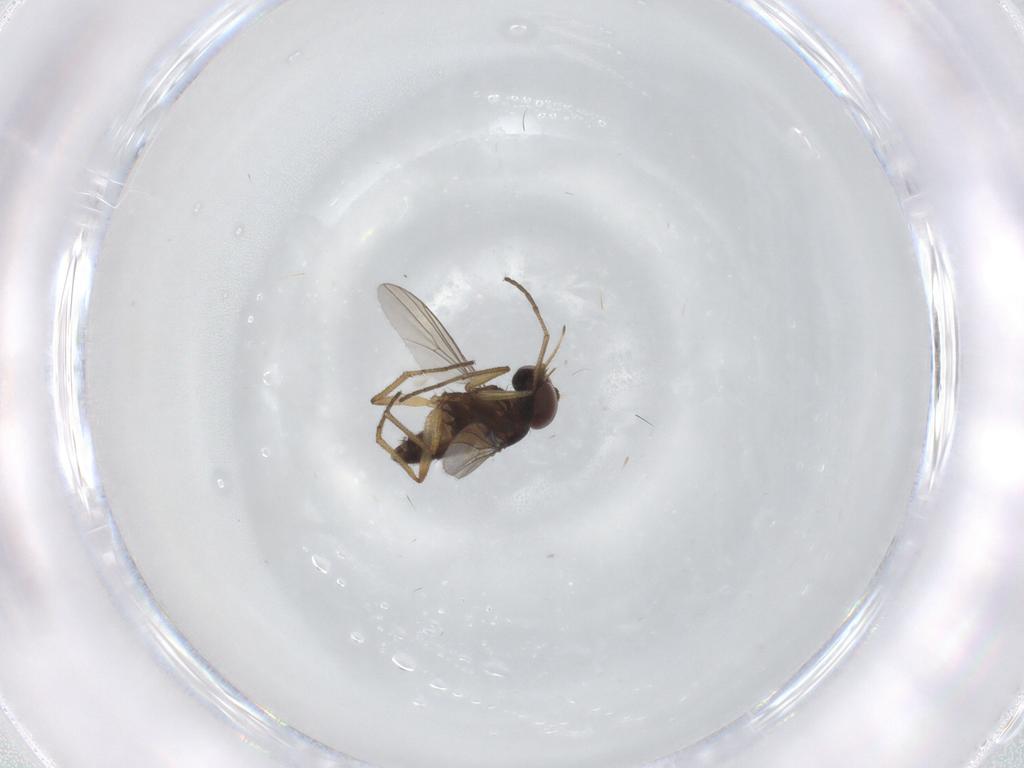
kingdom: Animalia
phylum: Arthropoda
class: Insecta
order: Diptera
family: Dolichopodidae
